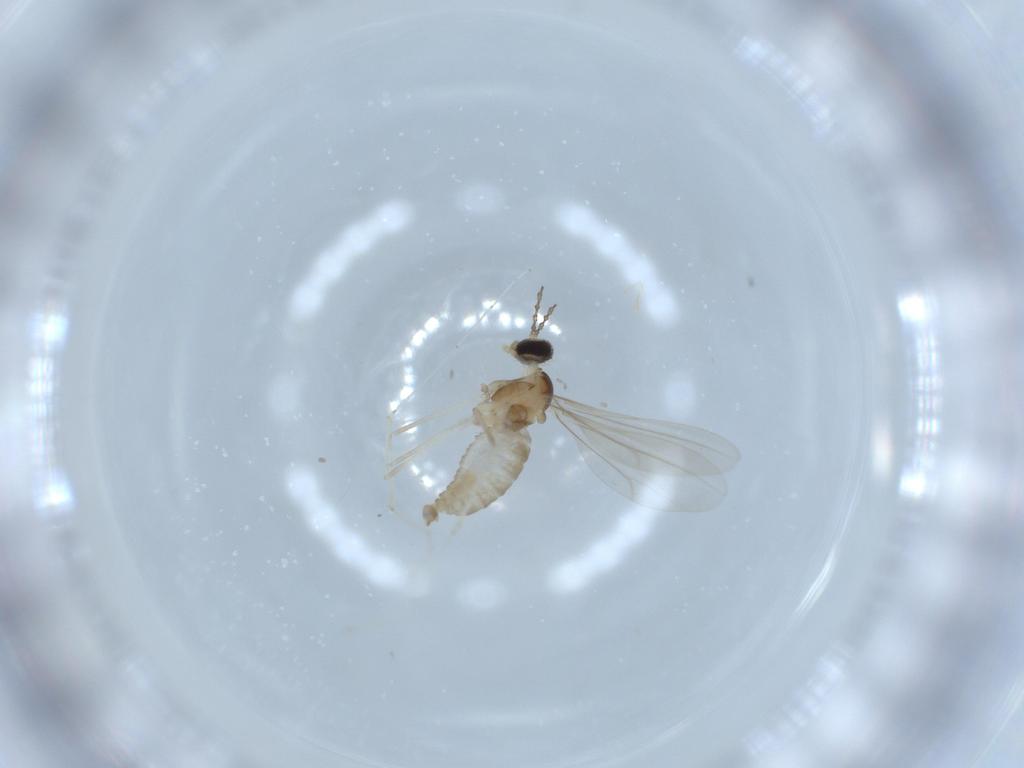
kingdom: Animalia
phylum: Arthropoda
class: Insecta
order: Diptera
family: Cecidomyiidae
